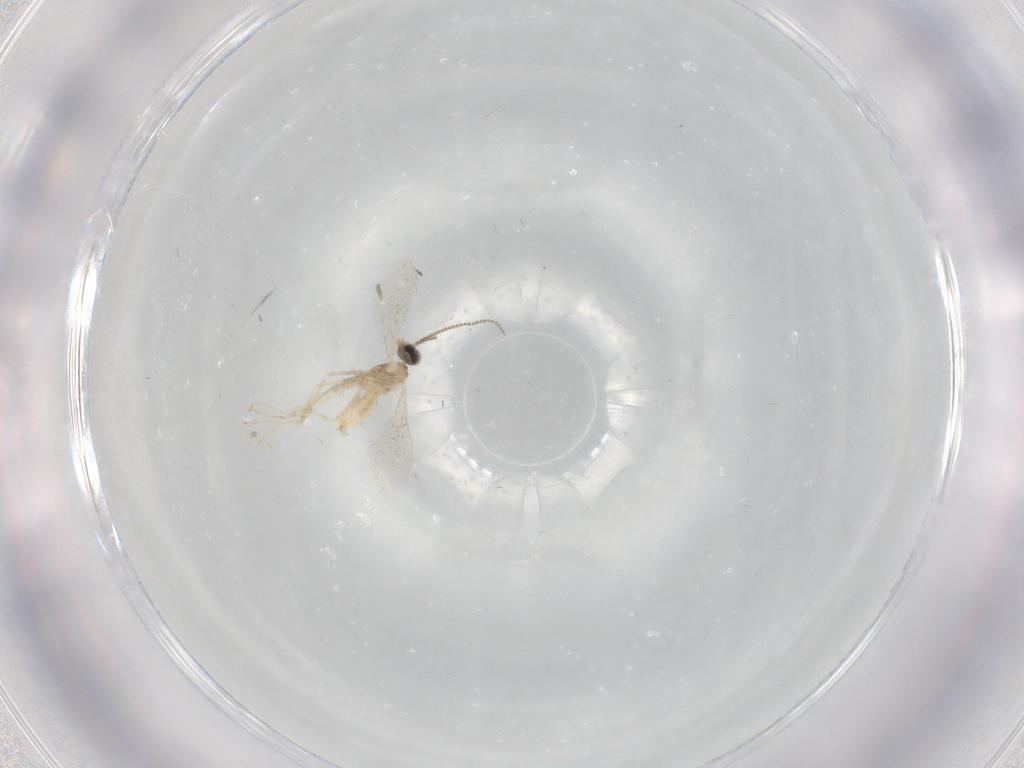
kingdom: Animalia
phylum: Arthropoda
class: Insecta
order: Diptera
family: Cecidomyiidae
